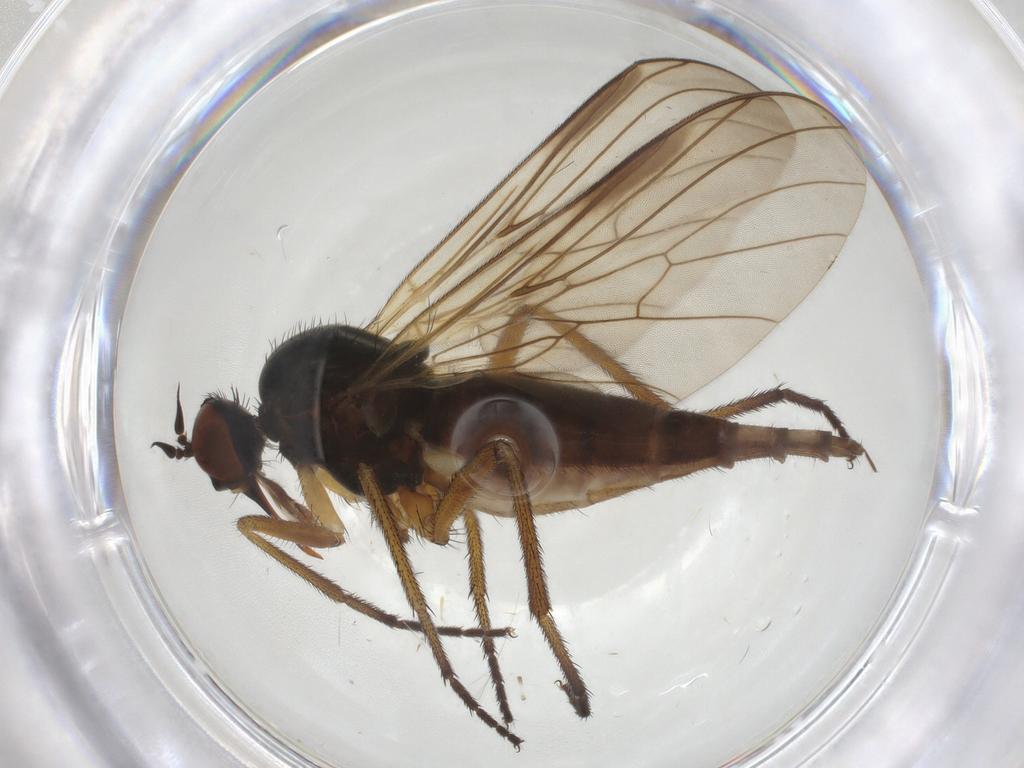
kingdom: Animalia
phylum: Arthropoda
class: Insecta
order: Diptera
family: Empididae
